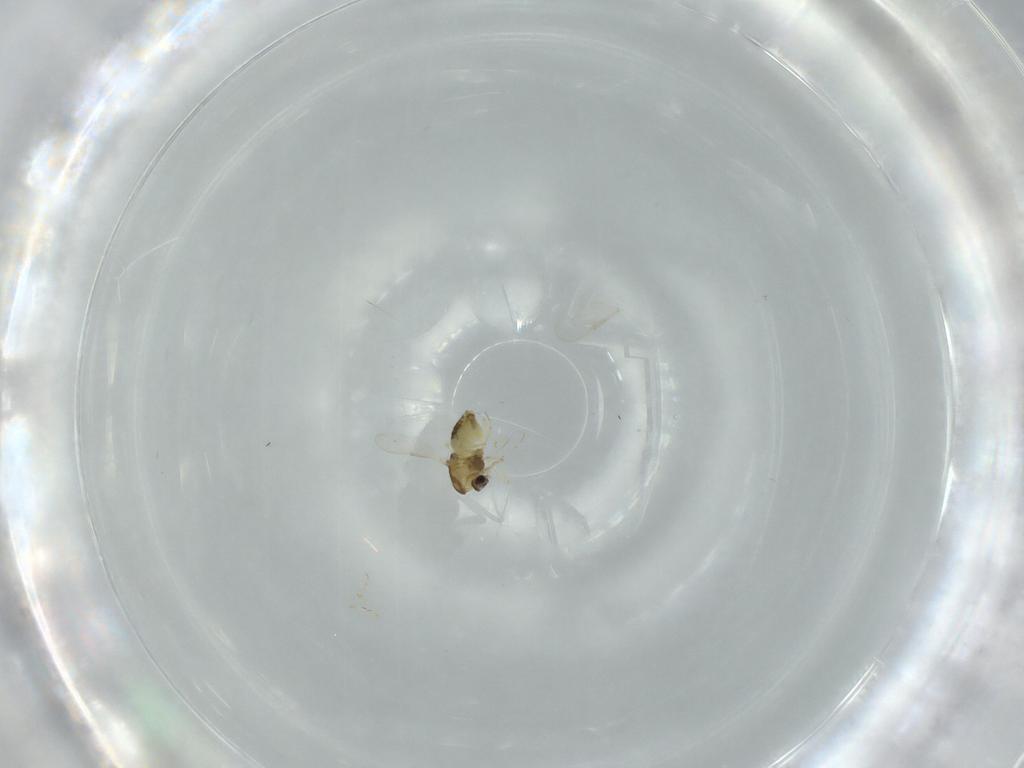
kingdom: Animalia
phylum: Arthropoda
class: Insecta
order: Diptera
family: Chironomidae
